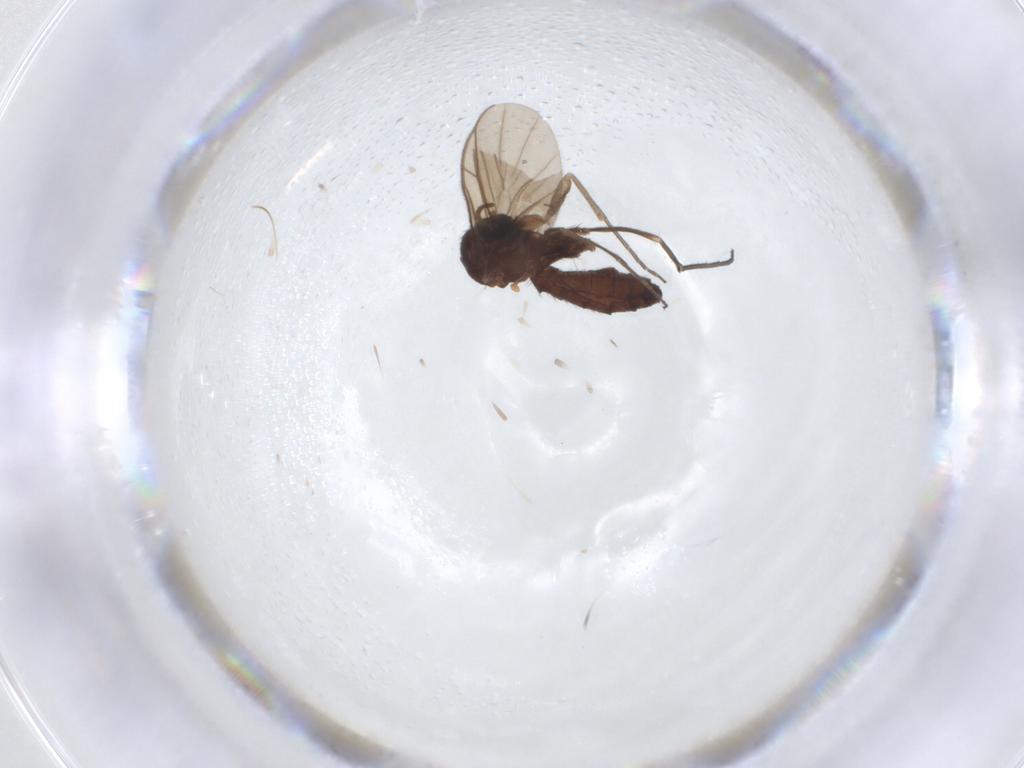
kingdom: Animalia
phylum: Arthropoda
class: Insecta
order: Diptera
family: Keroplatidae
